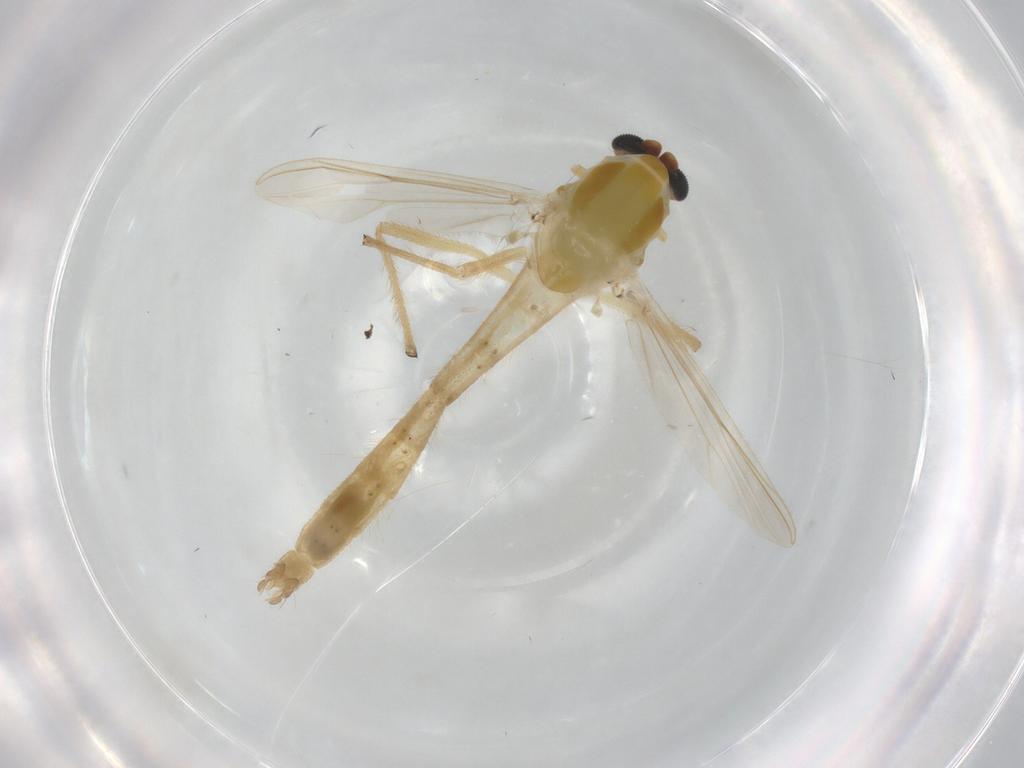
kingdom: Animalia
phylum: Arthropoda
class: Insecta
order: Diptera
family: Chironomidae
